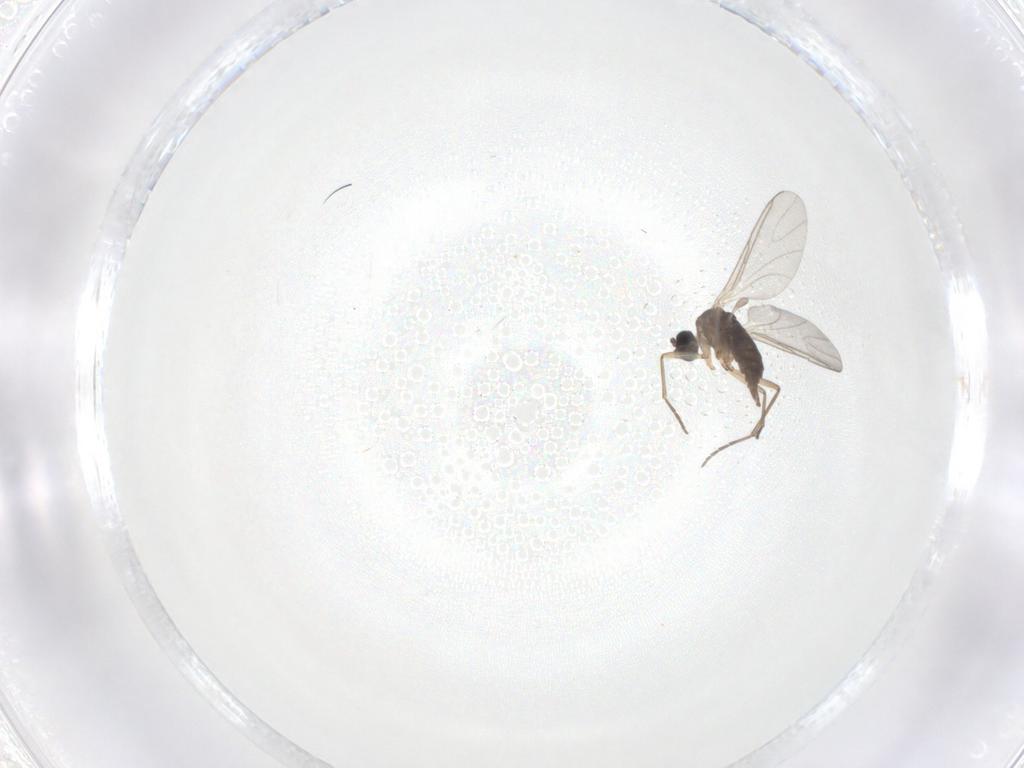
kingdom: Animalia
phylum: Arthropoda
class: Insecta
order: Diptera
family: Sciaridae
